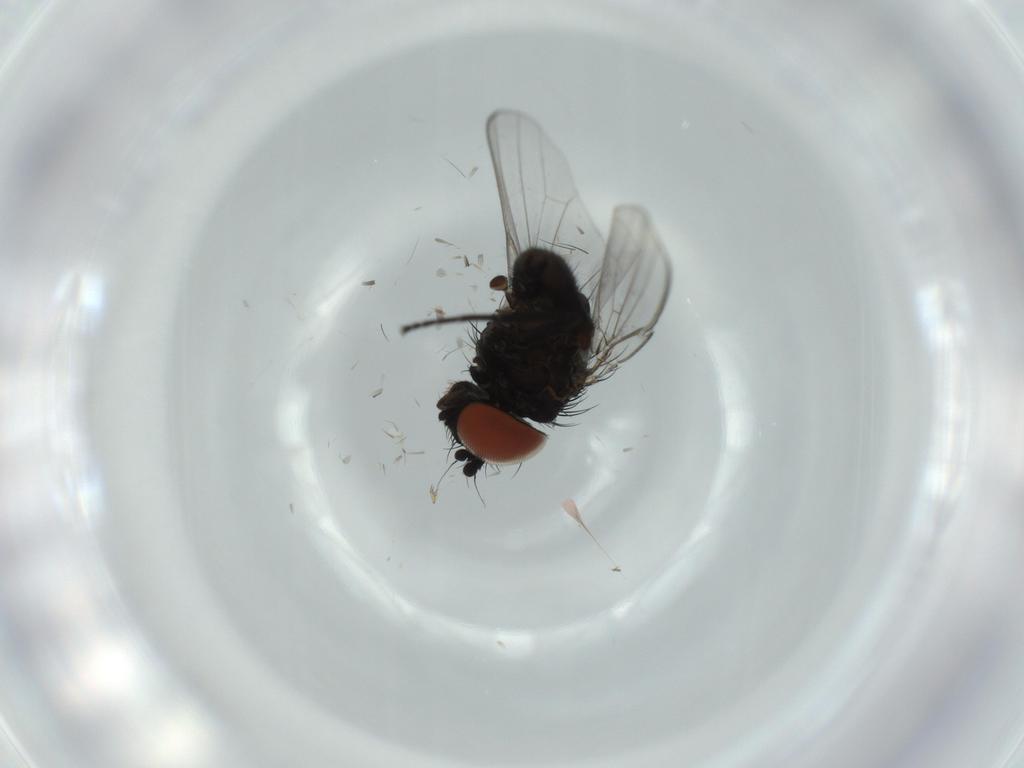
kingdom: Animalia
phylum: Arthropoda
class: Insecta
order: Diptera
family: Milichiidae
